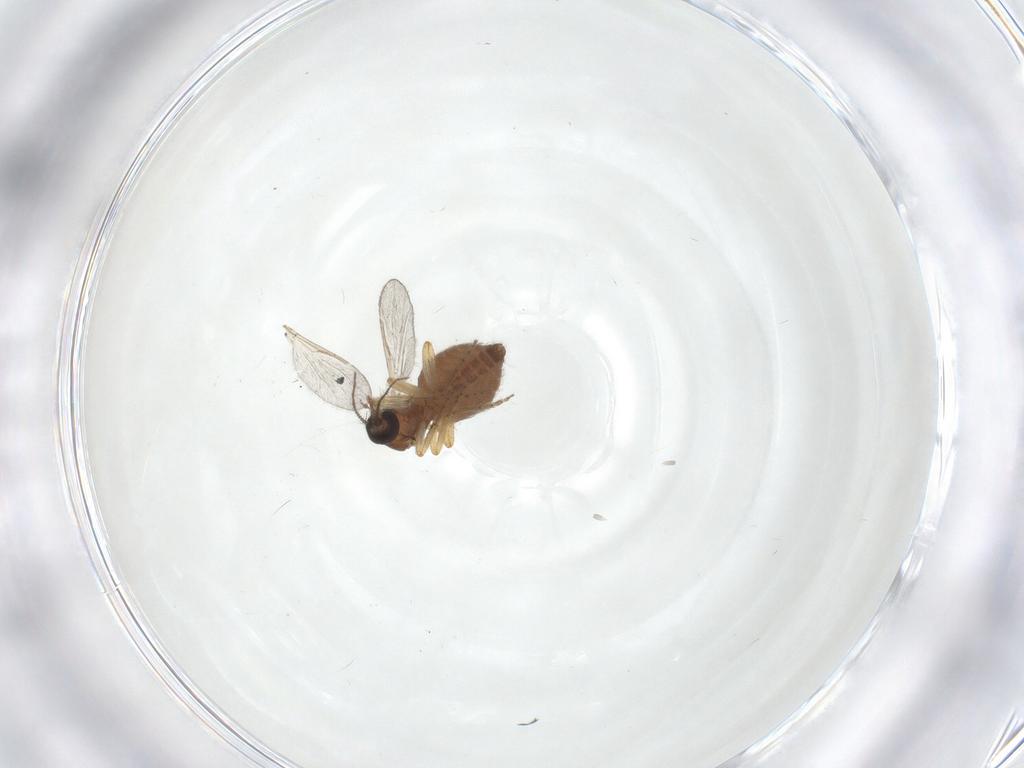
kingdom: Animalia
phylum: Arthropoda
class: Insecta
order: Diptera
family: Ceratopogonidae
